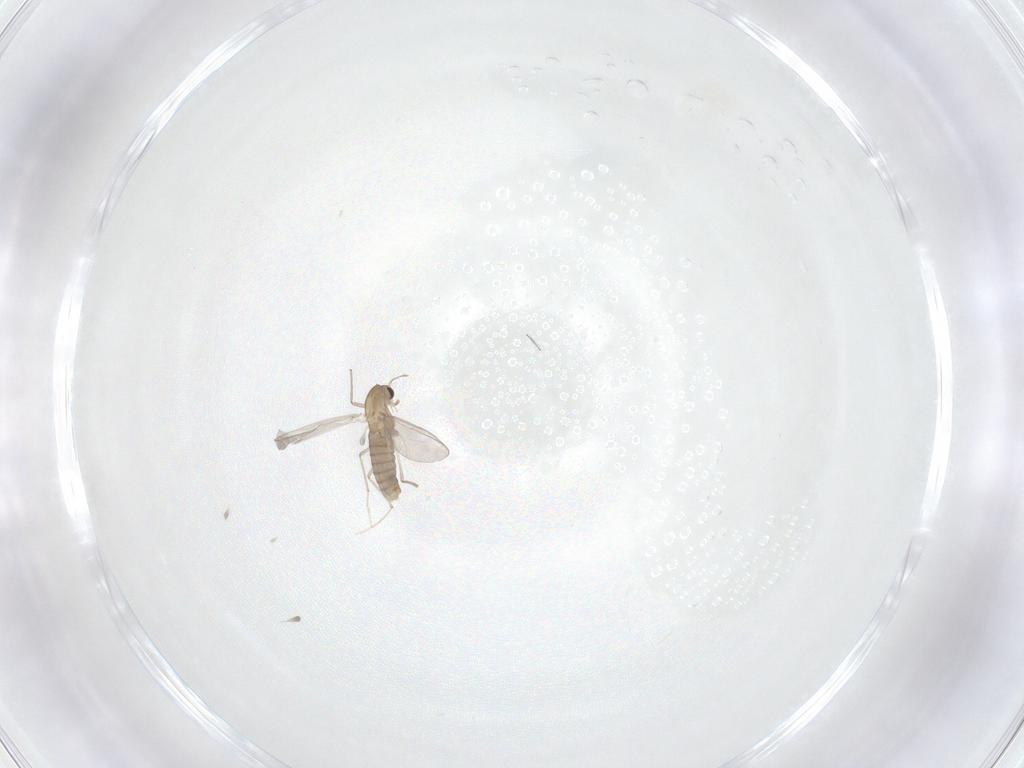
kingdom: Animalia
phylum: Arthropoda
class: Insecta
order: Diptera
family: Chironomidae
